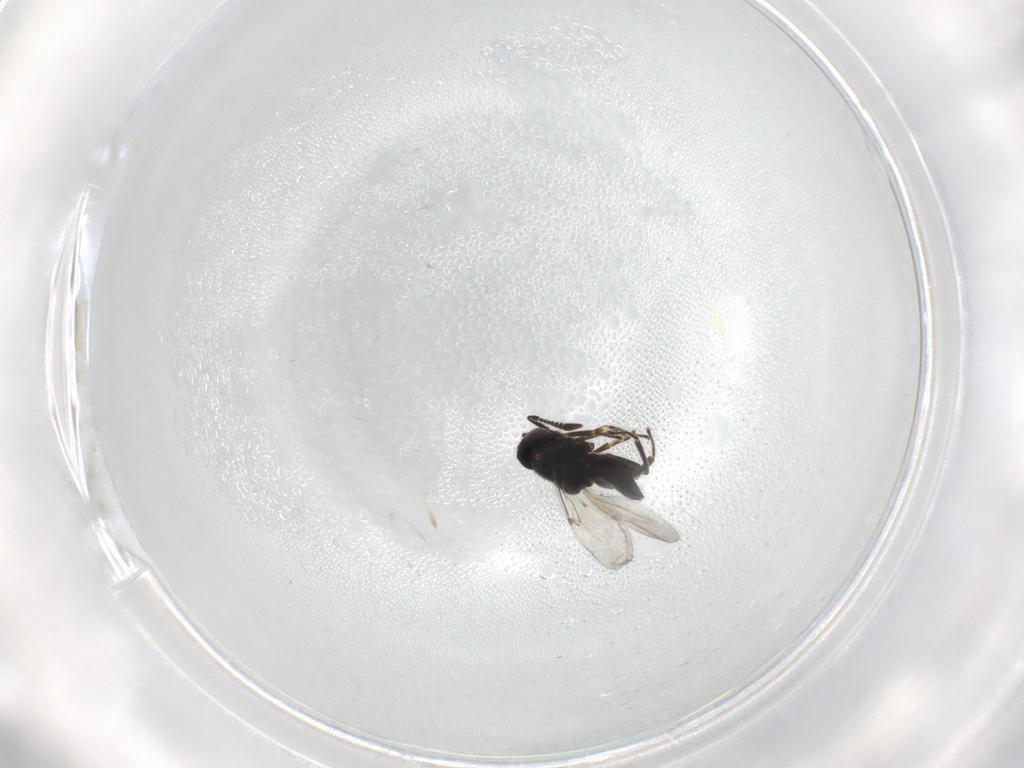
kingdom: Animalia
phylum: Arthropoda
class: Insecta
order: Hymenoptera
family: Encyrtidae
